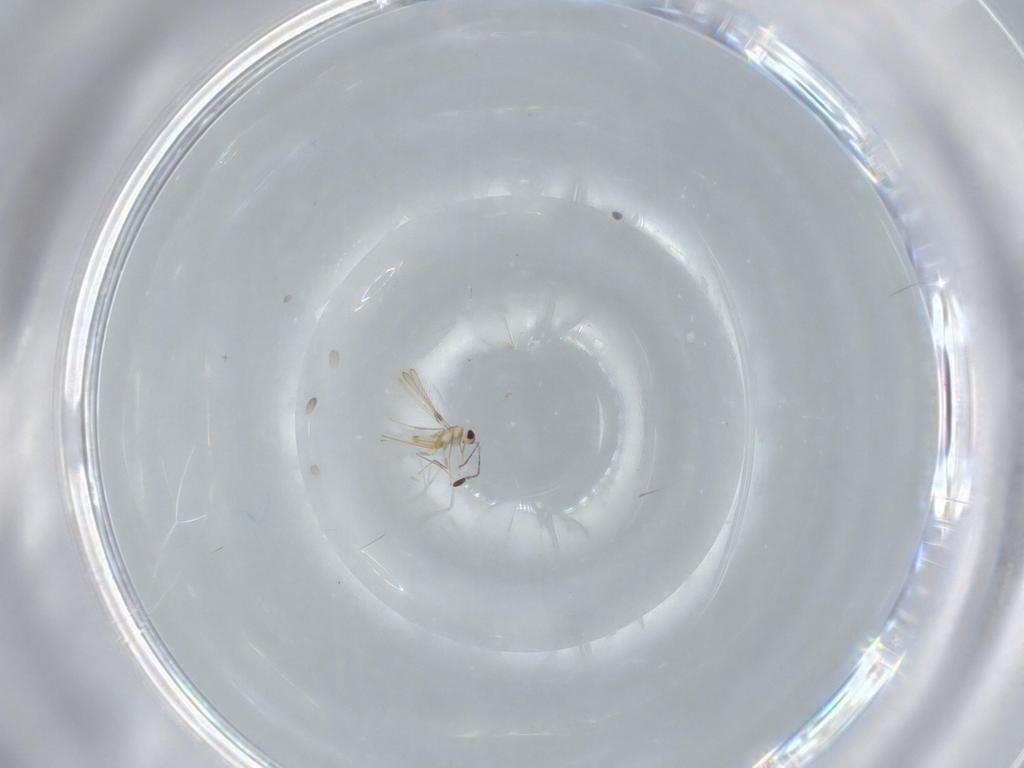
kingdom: Animalia
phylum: Arthropoda
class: Insecta
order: Hymenoptera
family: Mymaridae
